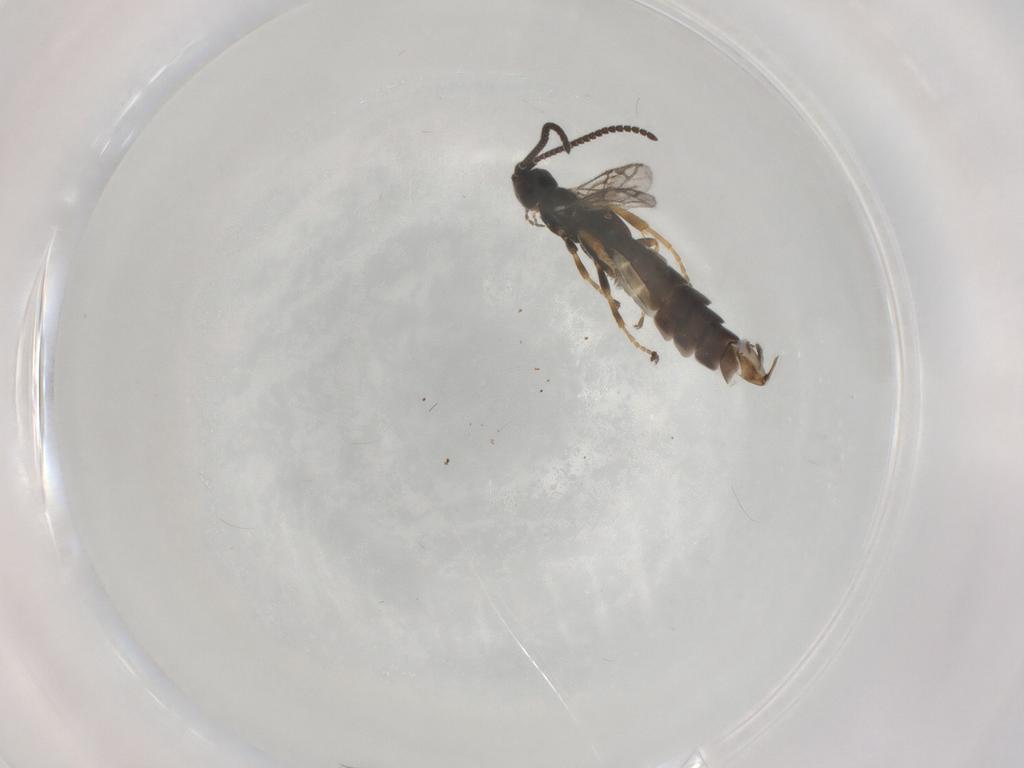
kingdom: Animalia
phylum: Arthropoda
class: Insecta
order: Hymenoptera
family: Ichneumonidae
